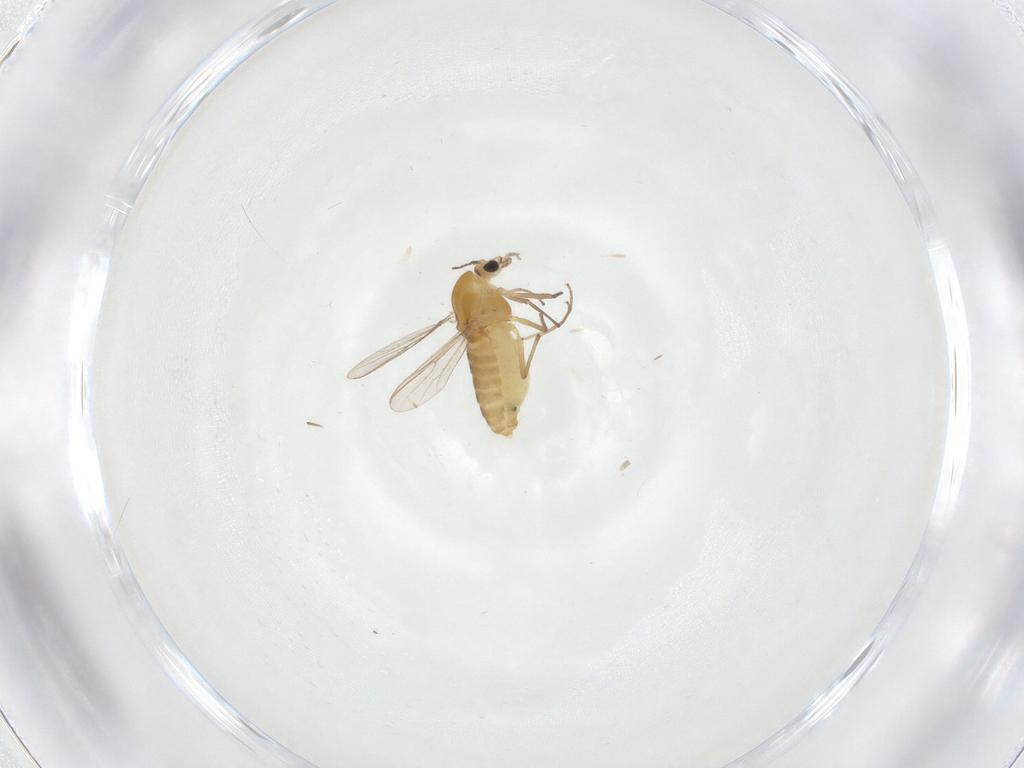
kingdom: Animalia
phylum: Arthropoda
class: Insecta
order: Diptera
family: Chironomidae
